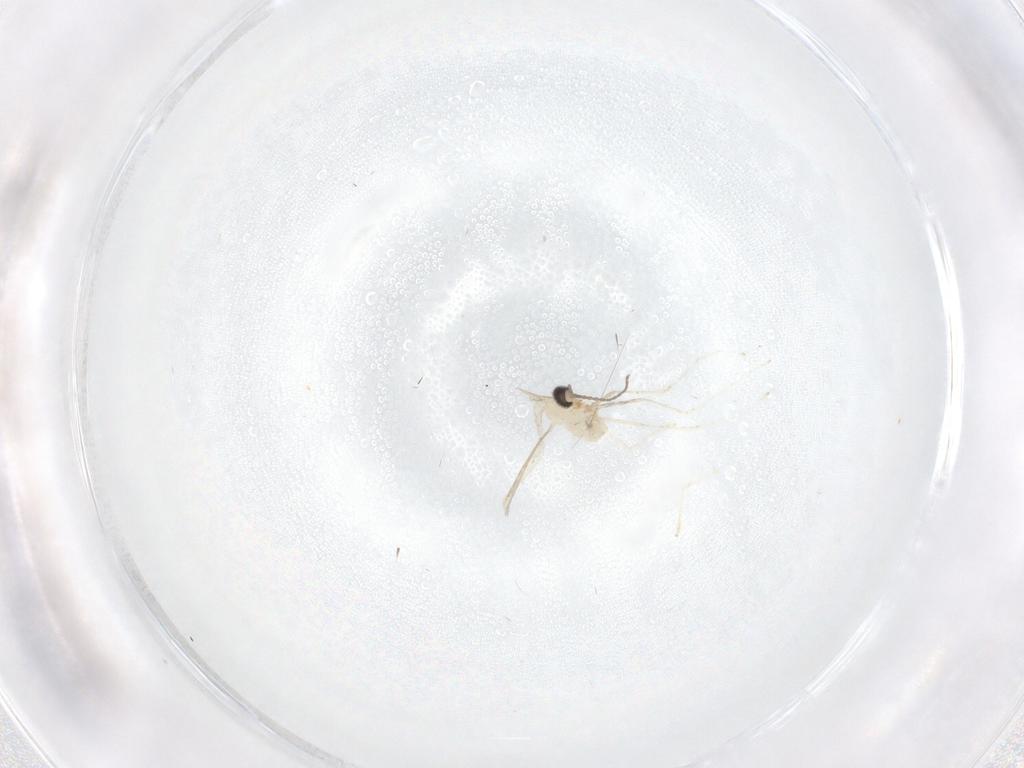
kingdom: Animalia
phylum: Arthropoda
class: Insecta
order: Diptera
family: Cecidomyiidae
